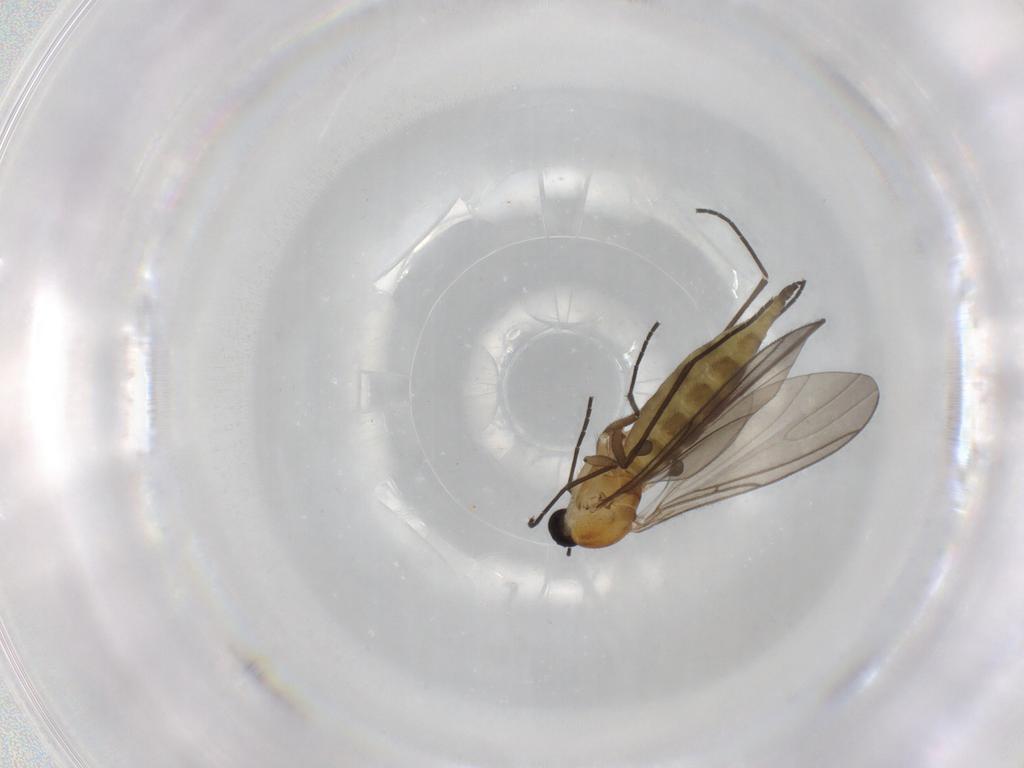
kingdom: Animalia
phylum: Arthropoda
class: Insecta
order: Diptera
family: Sciaridae
